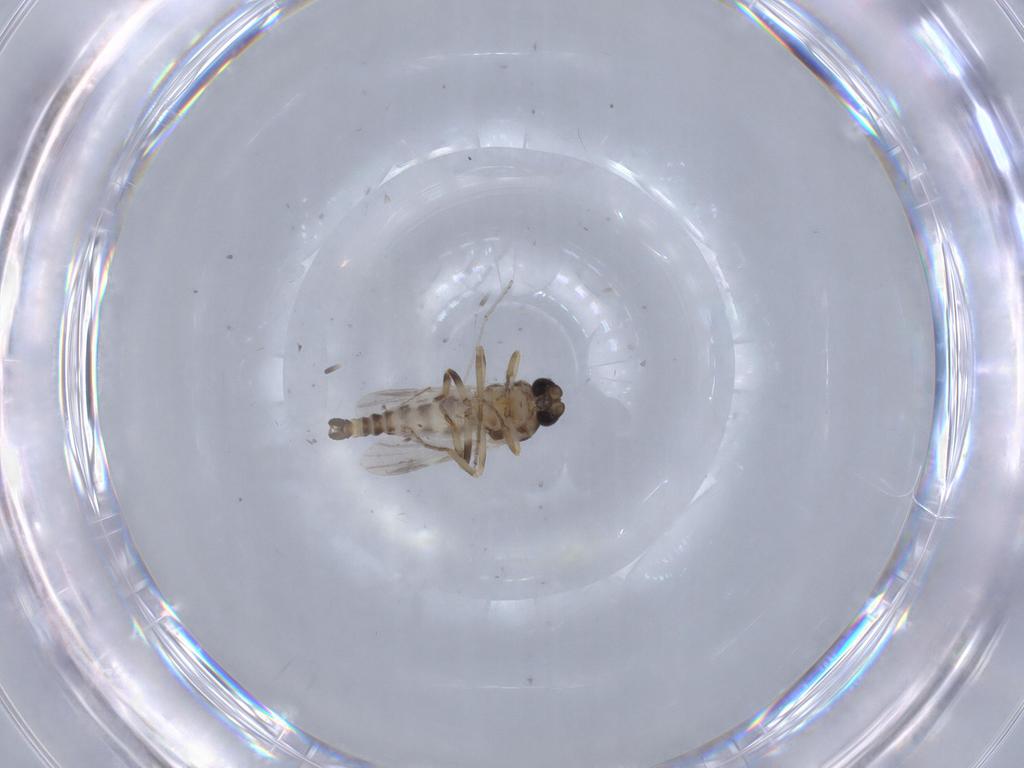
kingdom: Animalia
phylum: Arthropoda
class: Insecta
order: Diptera
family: Ceratopogonidae
